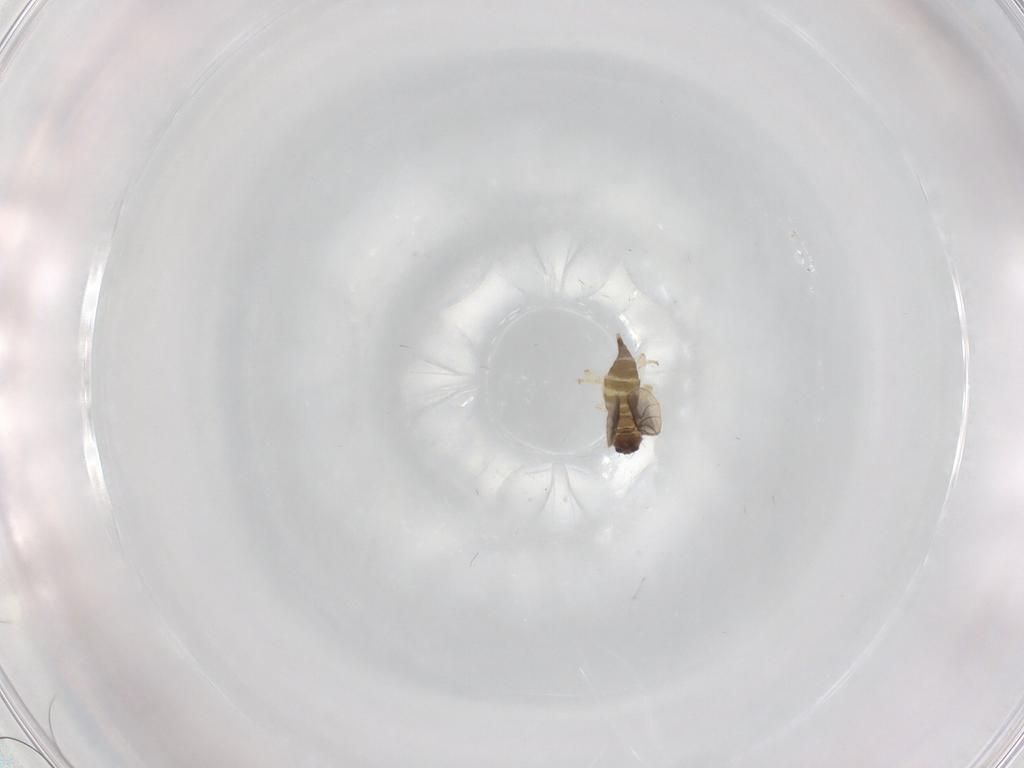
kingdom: Animalia
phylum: Arthropoda
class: Insecta
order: Diptera
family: Hybotidae
